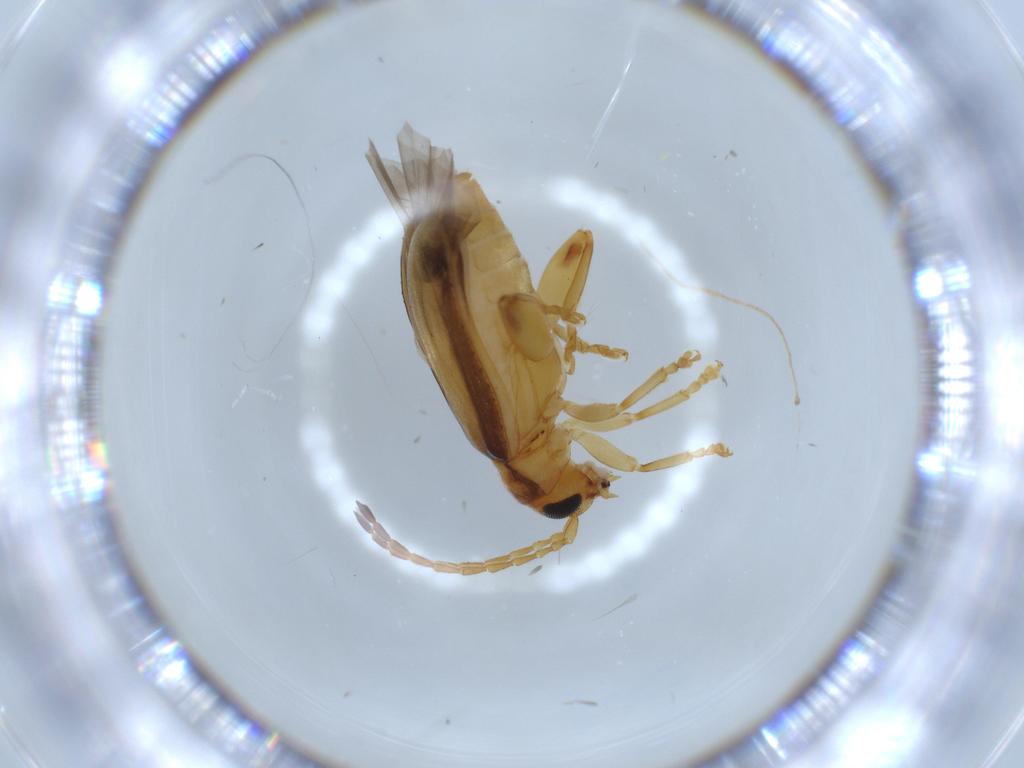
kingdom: Animalia
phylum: Arthropoda
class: Insecta
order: Coleoptera
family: Chrysomelidae
